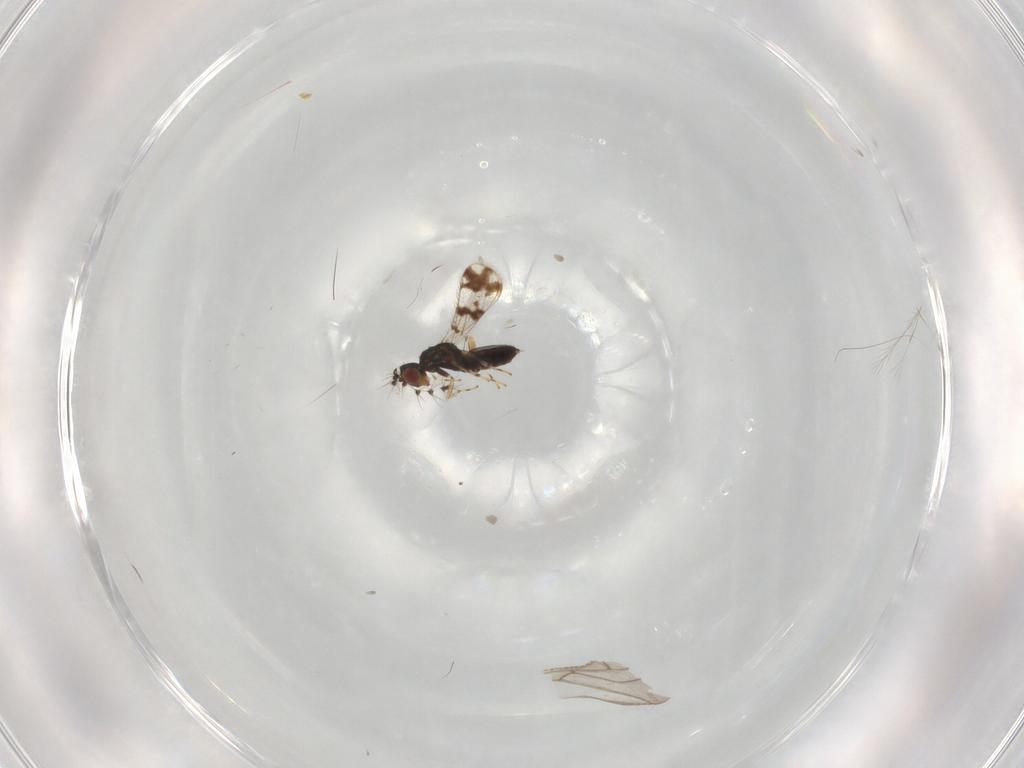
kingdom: Animalia
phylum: Arthropoda
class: Insecta
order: Hymenoptera
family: Eulophidae
